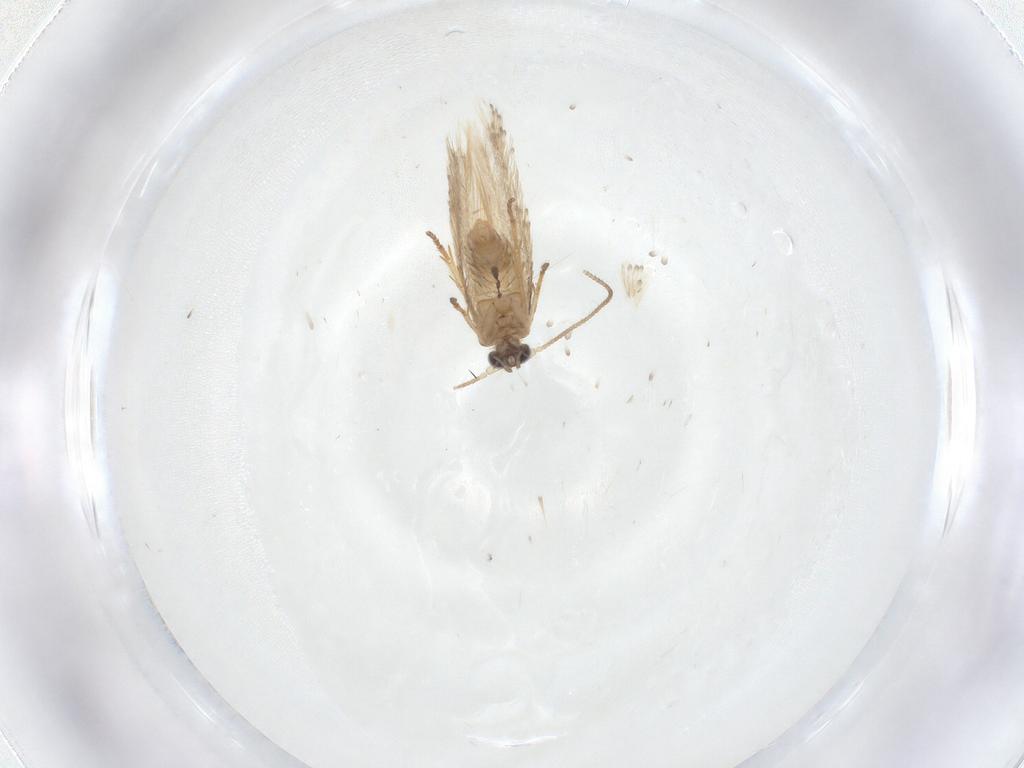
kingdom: Animalia
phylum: Arthropoda
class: Insecta
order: Lepidoptera
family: Nepticulidae
